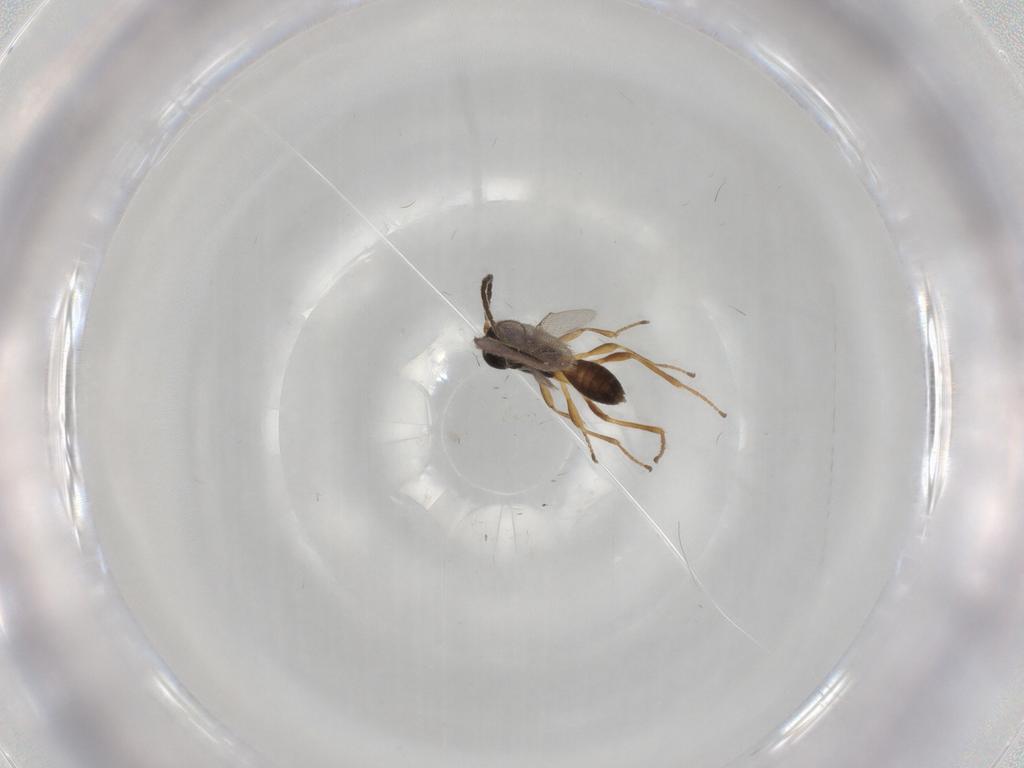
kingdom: Animalia
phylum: Arthropoda
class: Insecta
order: Hymenoptera
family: Braconidae
